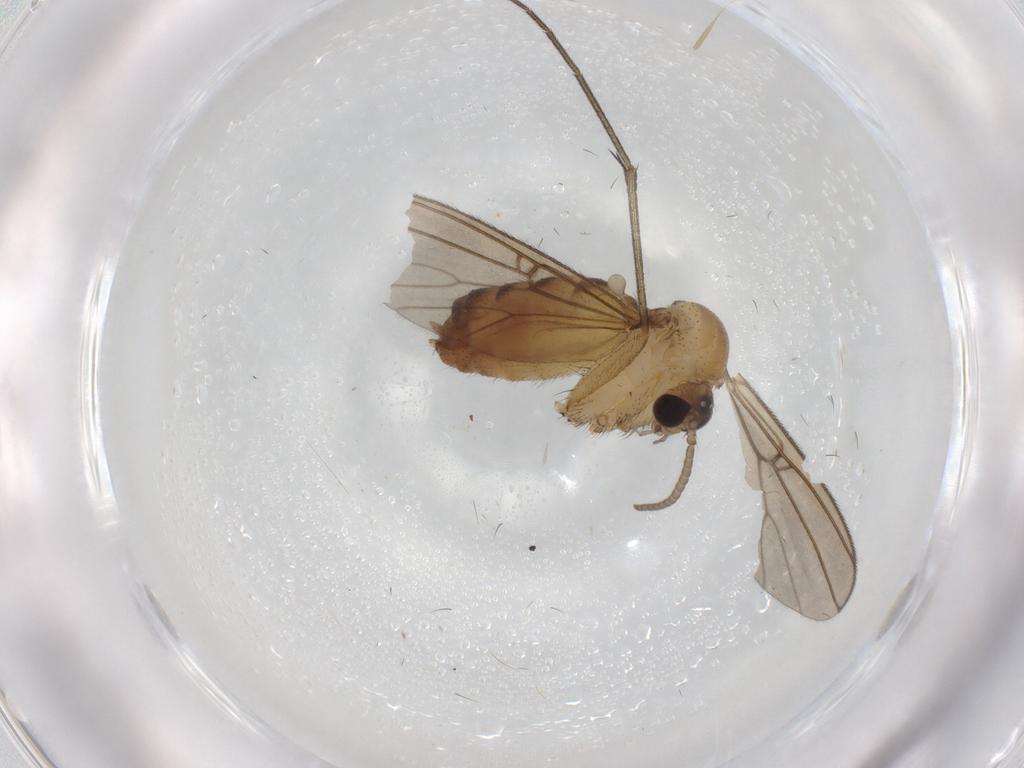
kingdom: Animalia
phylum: Arthropoda
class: Insecta
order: Diptera
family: Mycetophilidae
